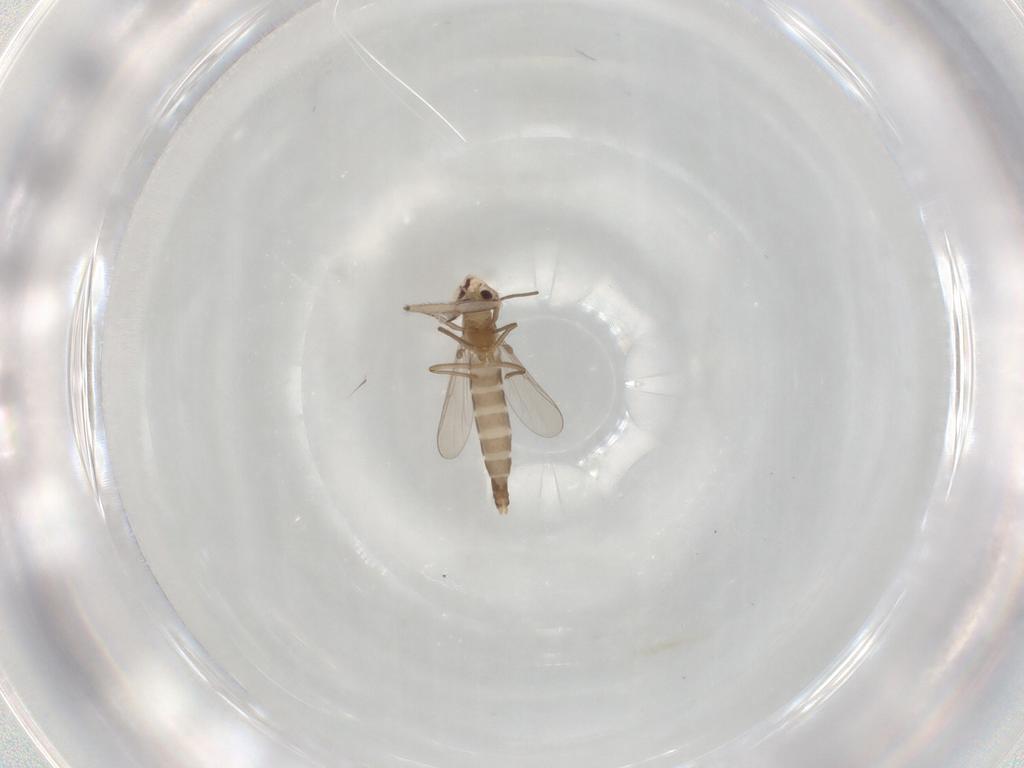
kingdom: Animalia
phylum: Arthropoda
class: Insecta
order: Diptera
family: Chironomidae
